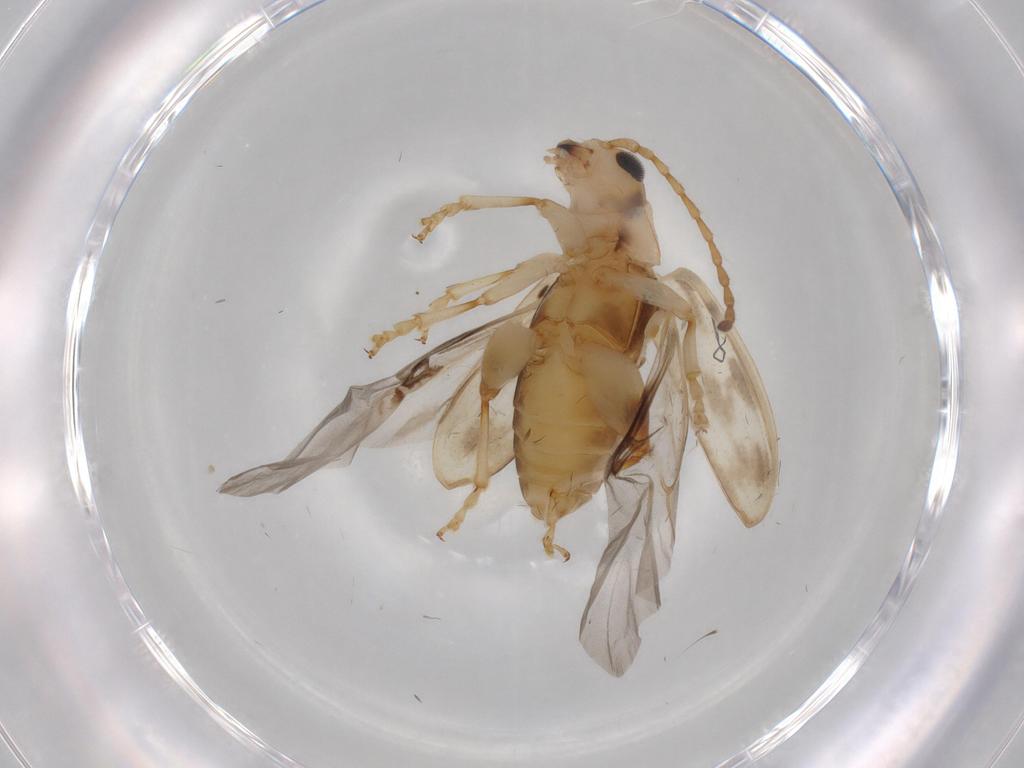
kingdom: Animalia
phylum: Arthropoda
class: Insecta
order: Coleoptera
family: Chrysomelidae
